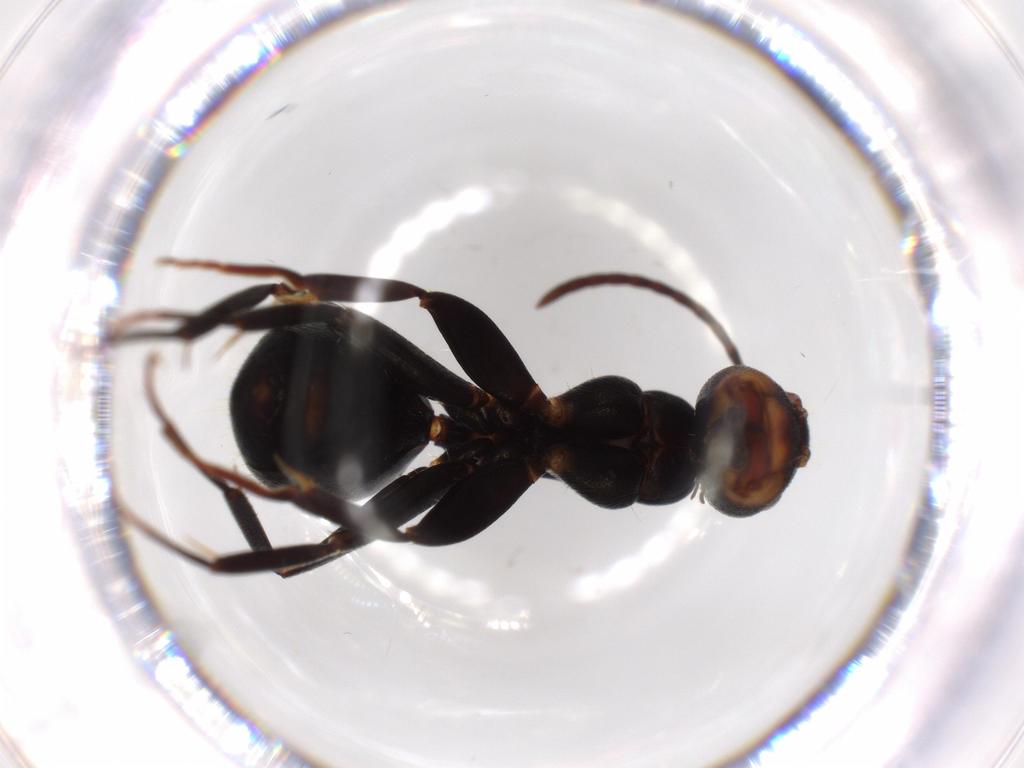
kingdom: Animalia
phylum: Arthropoda
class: Insecta
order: Hymenoptera
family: Formicidae
